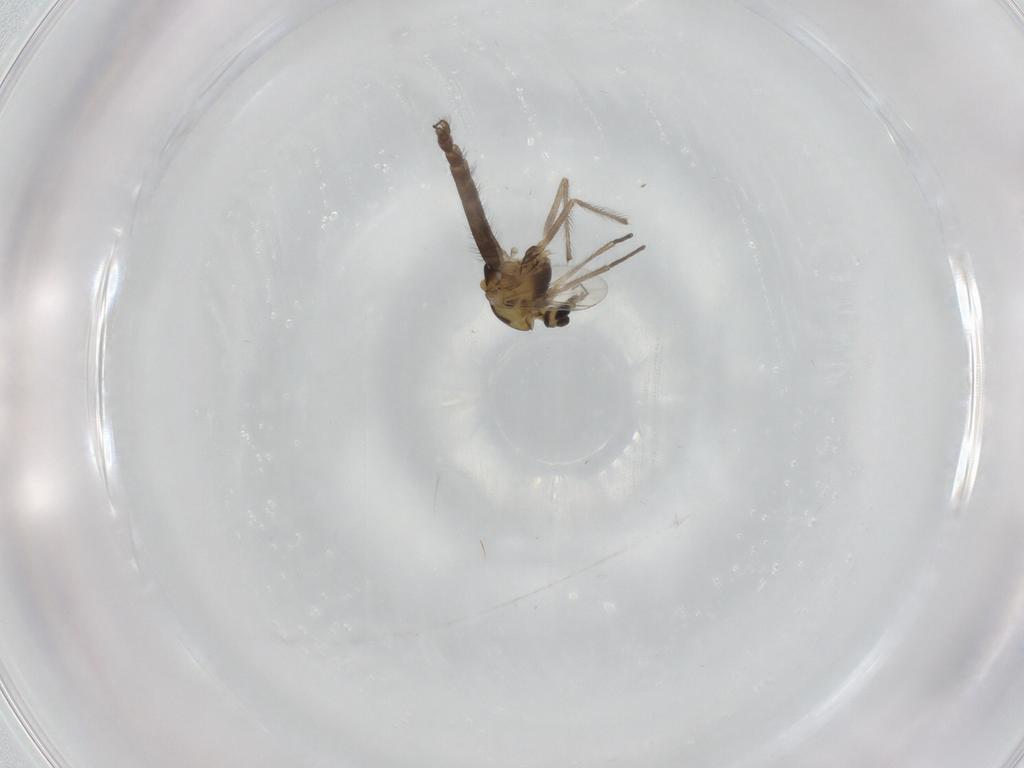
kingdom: Animalia
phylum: Arthropoda
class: Insecta
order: Diptera
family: Chironomidae
